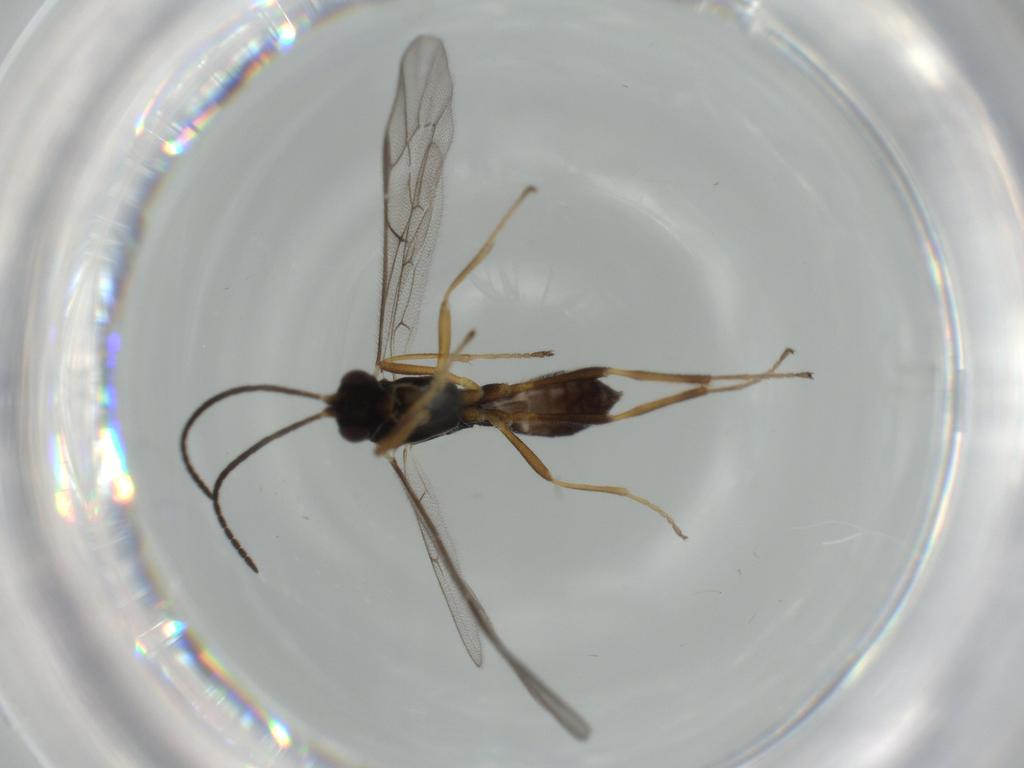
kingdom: Animalia
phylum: Arthropoda
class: Insecta
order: Hymenoptera
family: Ichneumonidae
